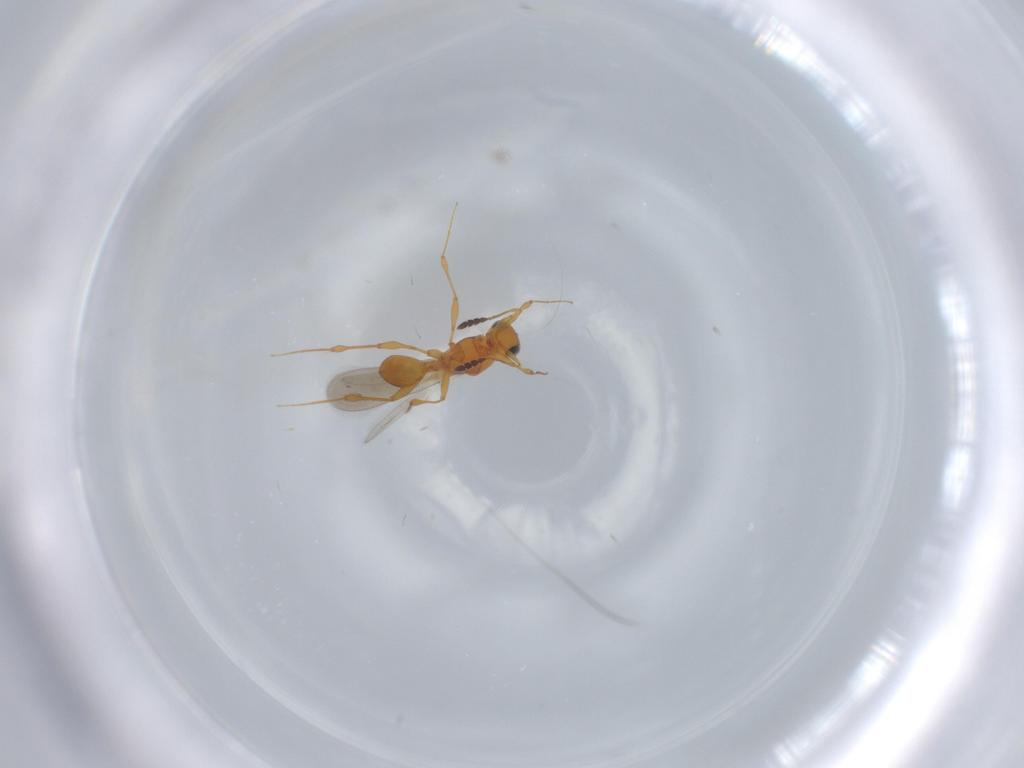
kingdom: Animalia
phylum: Arthropoda
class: Insecta
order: Hymenoptera
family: Platygastridae
